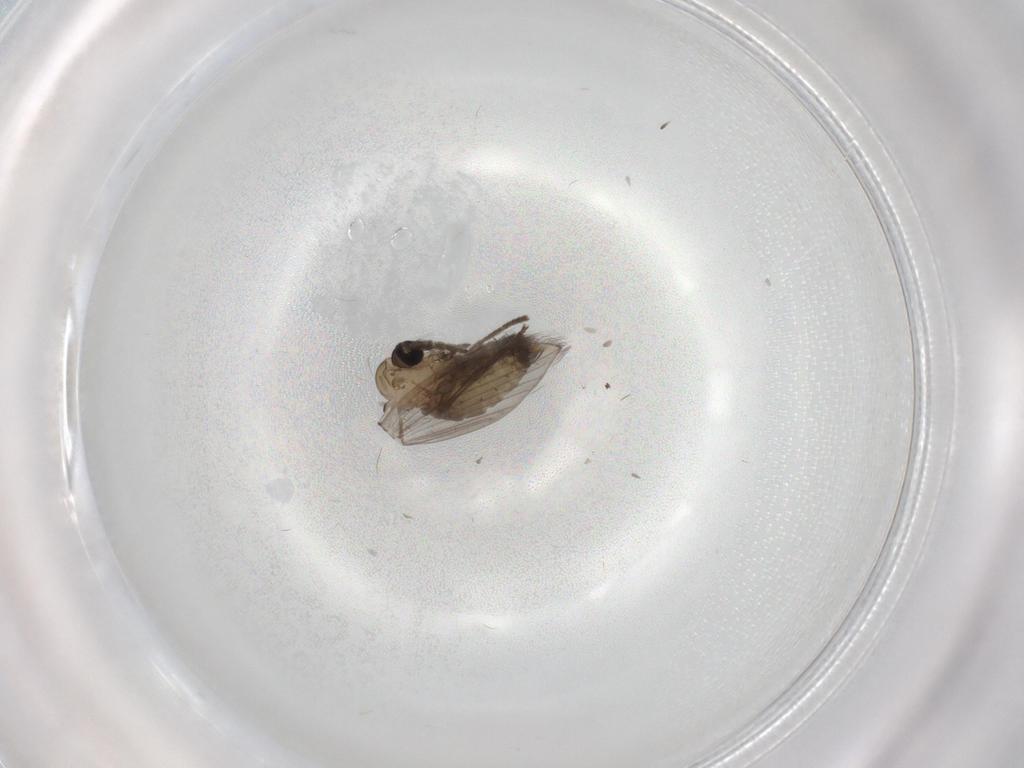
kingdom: Animalia
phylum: Arthropoda
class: Insecta
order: Diptera
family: Psychodidae
